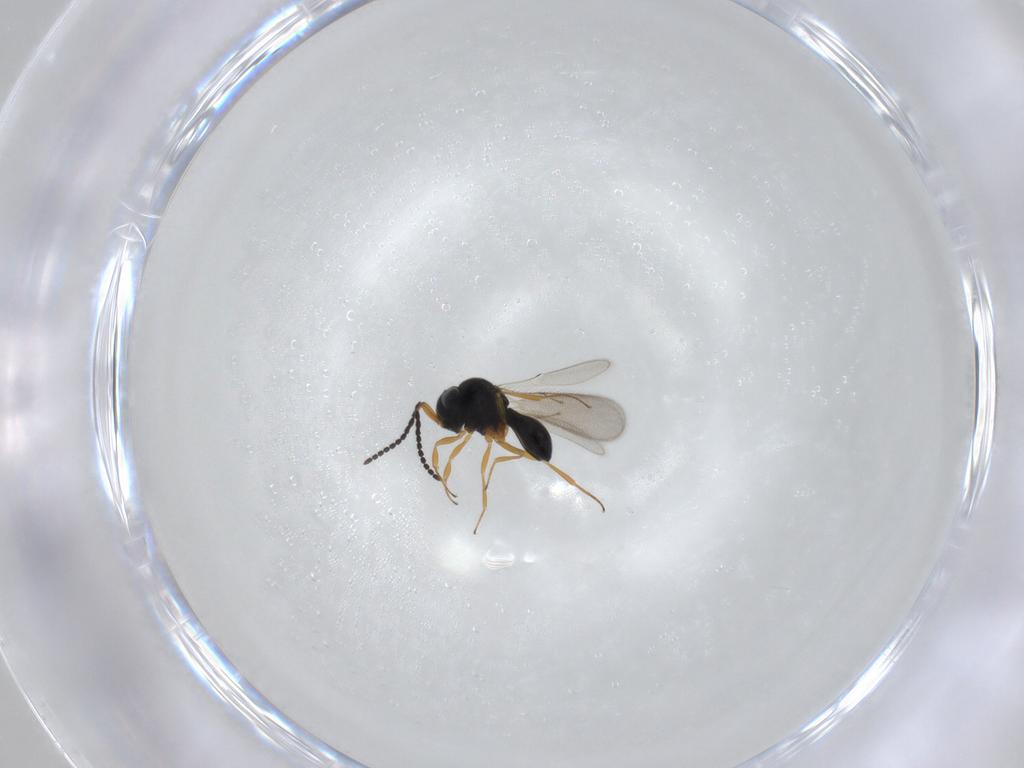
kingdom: Animalia
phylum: Arthropoda
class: Insecta
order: Hymenoptera
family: Scelionidae
